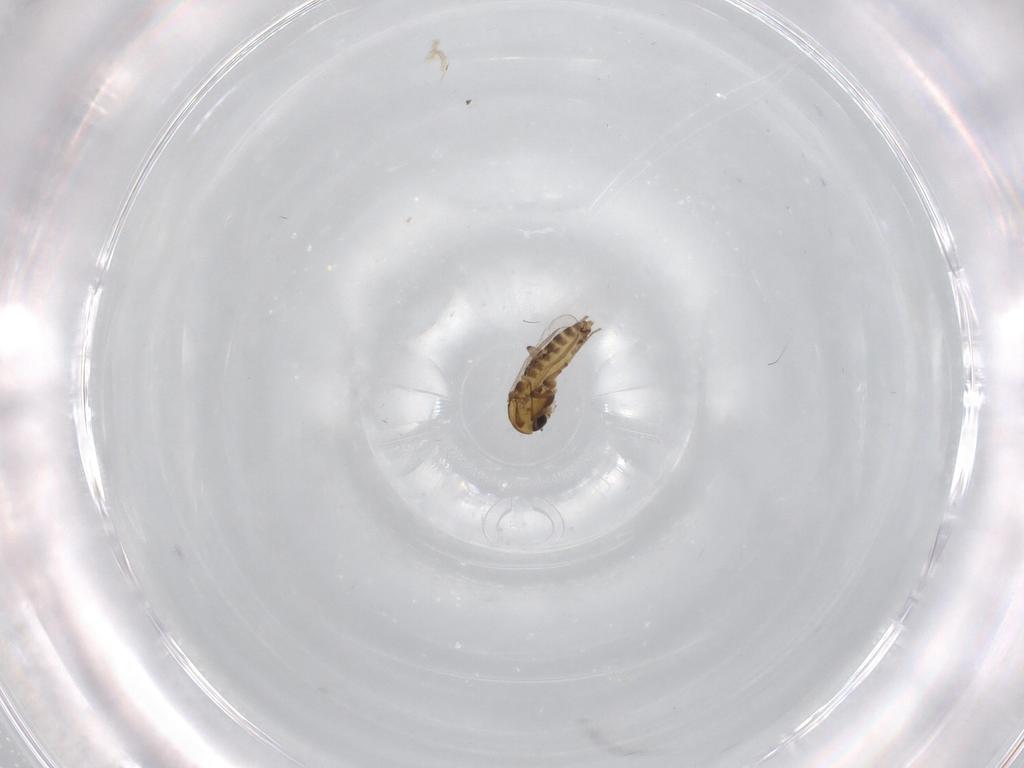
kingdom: Animalia
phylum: Arthropoda
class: Insecta
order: Diptera
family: Chironomidae
